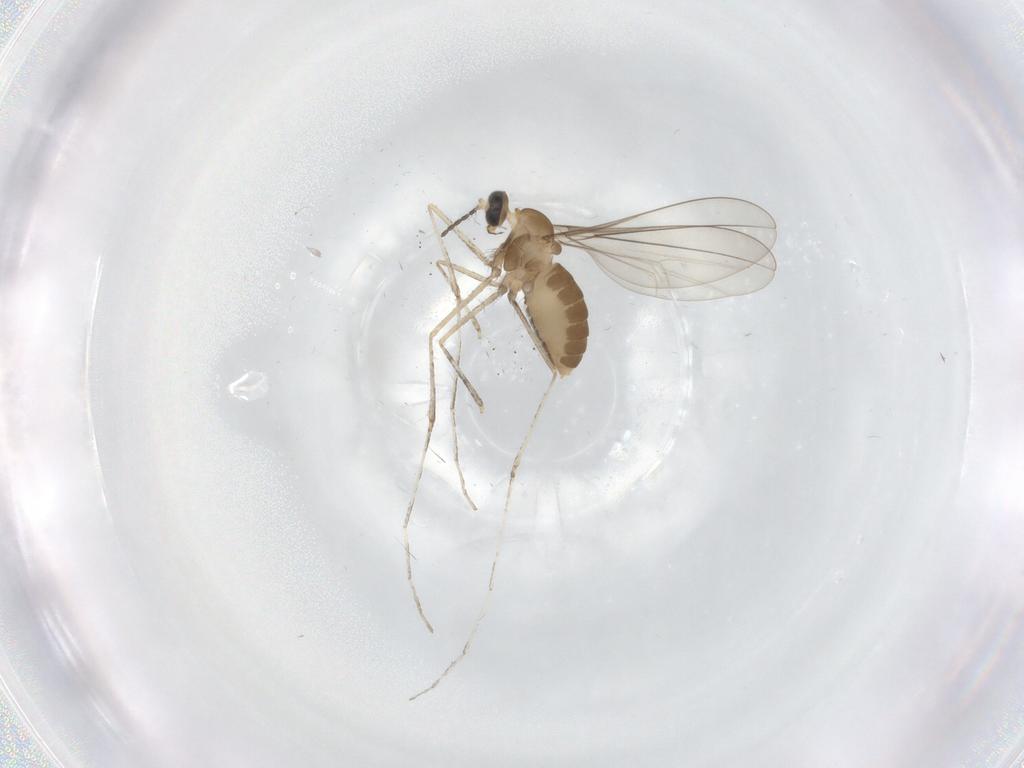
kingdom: Animalia
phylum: Arthropoda
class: Insecta
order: Diptera
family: Cecidomyiidae
